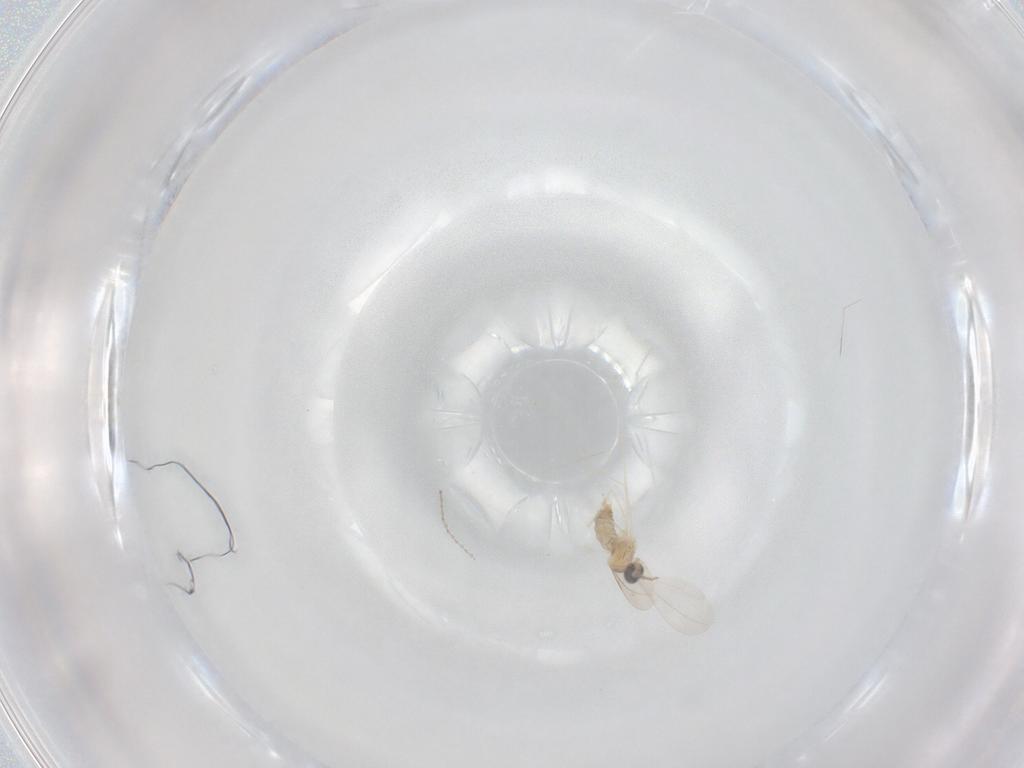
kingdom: Animalia
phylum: Arthropoda
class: Insecta
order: Diptera
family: Cecidomyiidae
